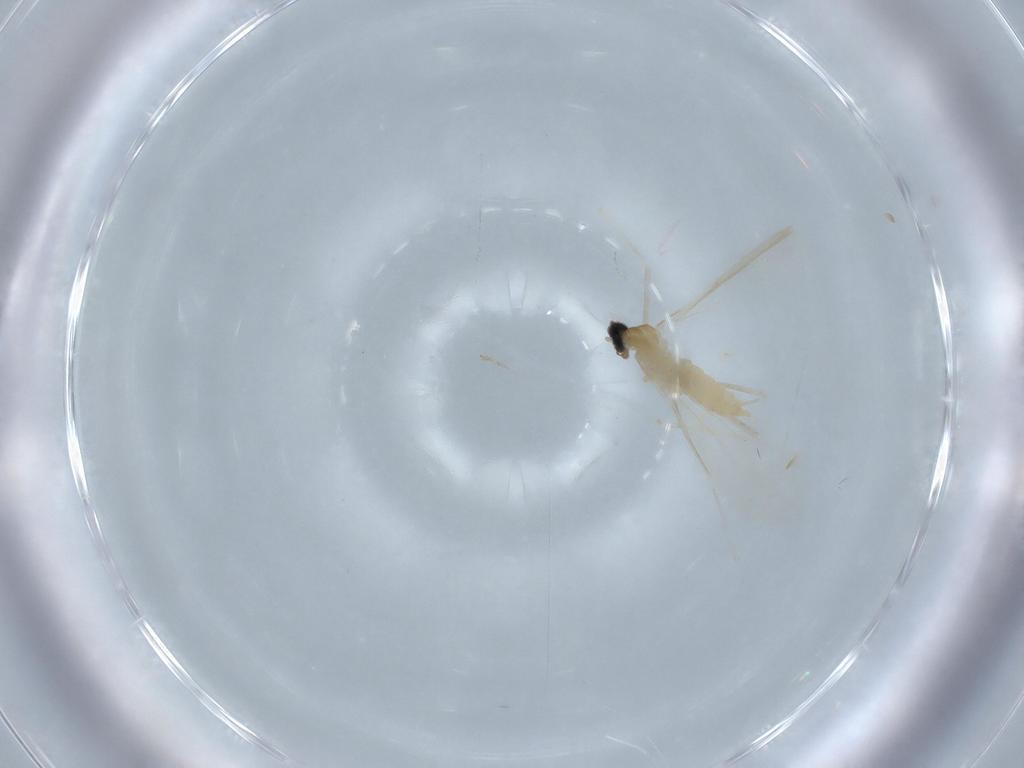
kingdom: Animalia
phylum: Arthropoda
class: Insecta
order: Diptera
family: Cecidomyiidae
